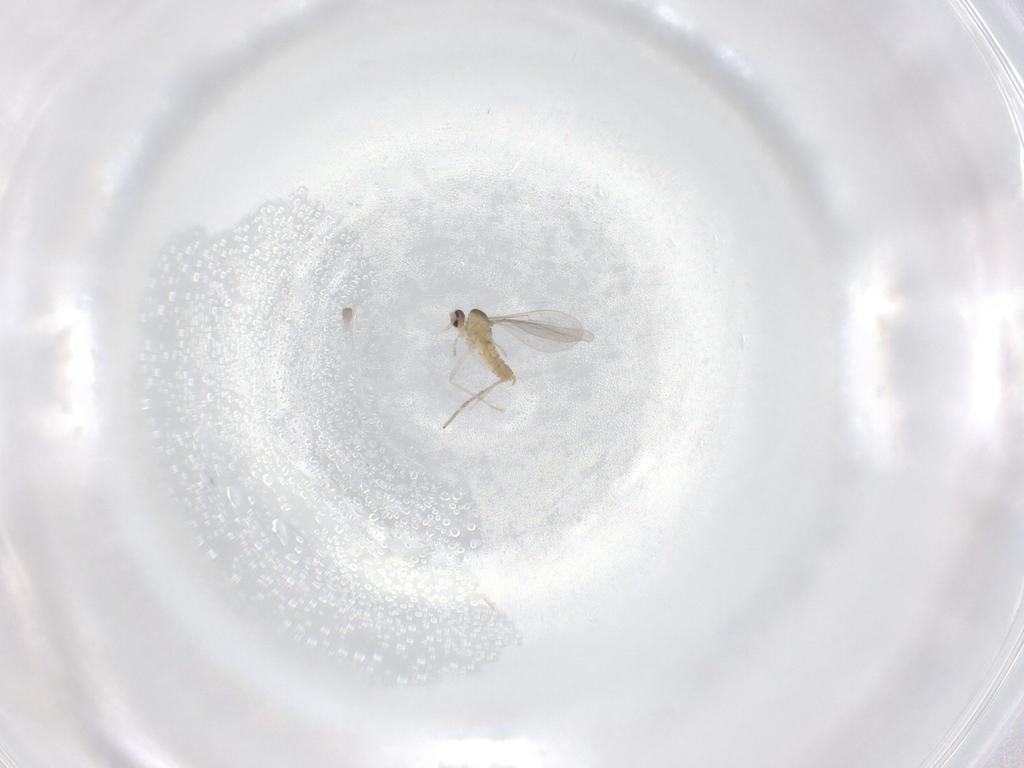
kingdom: Animalia
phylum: Arthropoda
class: Insecta
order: Diptera
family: Cecidomyiidae
